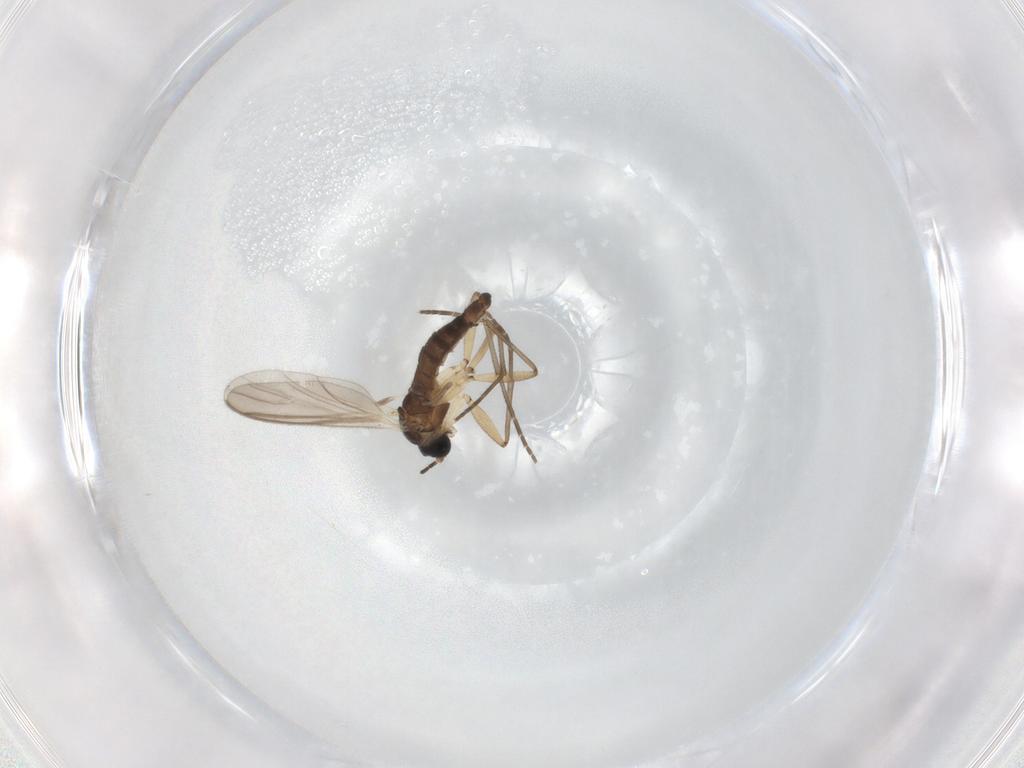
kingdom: Animalia
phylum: Arthropoda
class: Insecta
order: Diptera
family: Sciaridae
